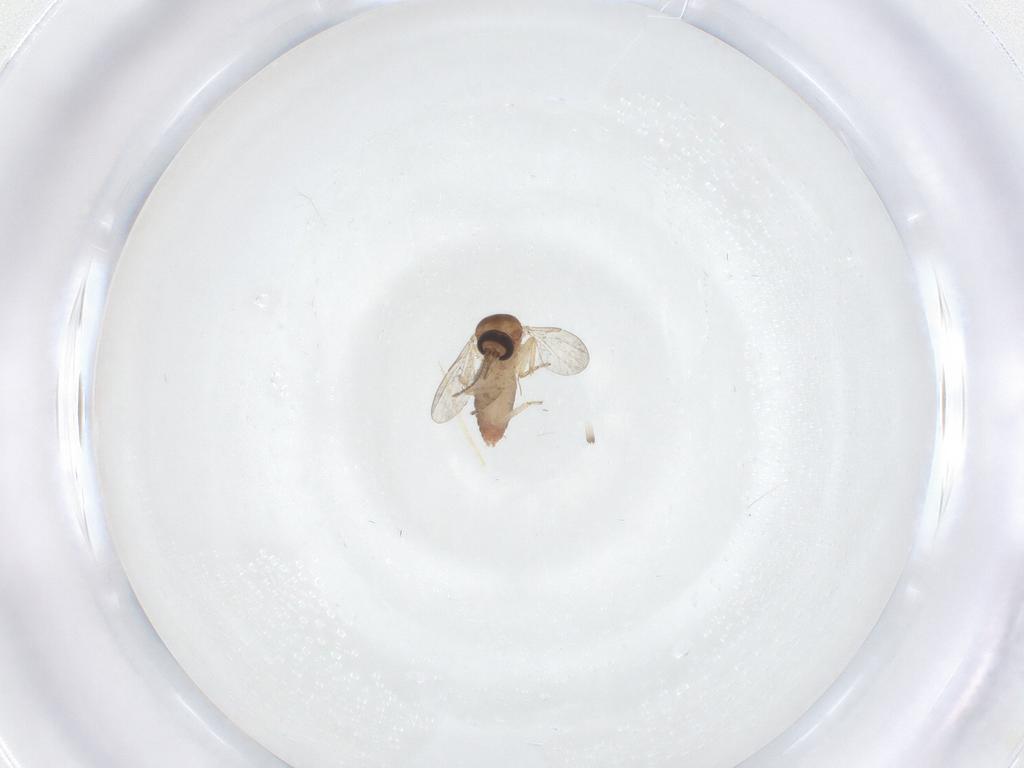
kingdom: Animalia
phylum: Arthropoda
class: Insecta
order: Diptera
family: Ceratopogonidae
